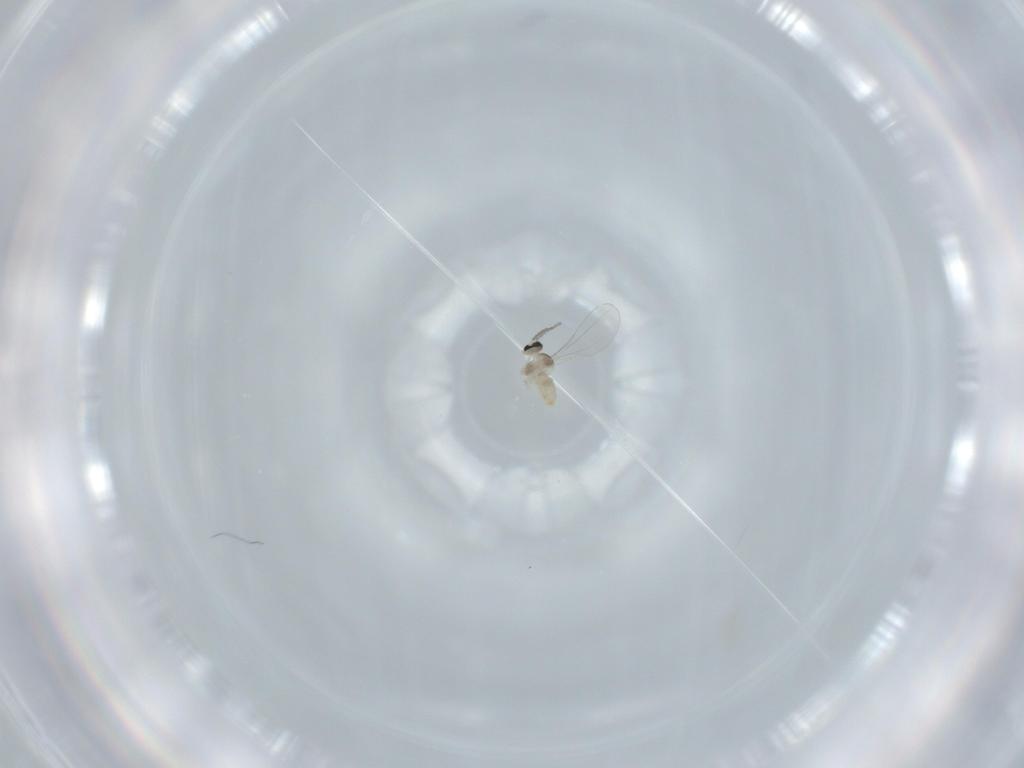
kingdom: Animalia
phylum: Arthropoda
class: Insecta
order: Diptera
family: Cecidomyiidae
